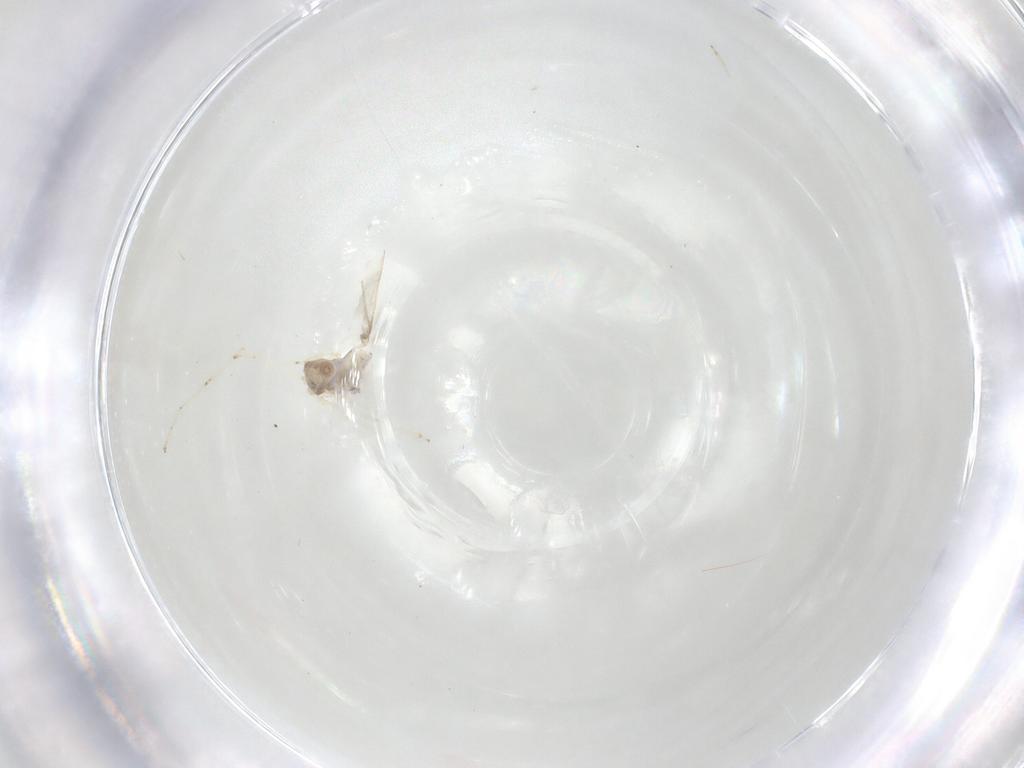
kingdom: Animalia
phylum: Arthropoda
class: Insecta
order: Diptera
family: Cecidomyiidae
